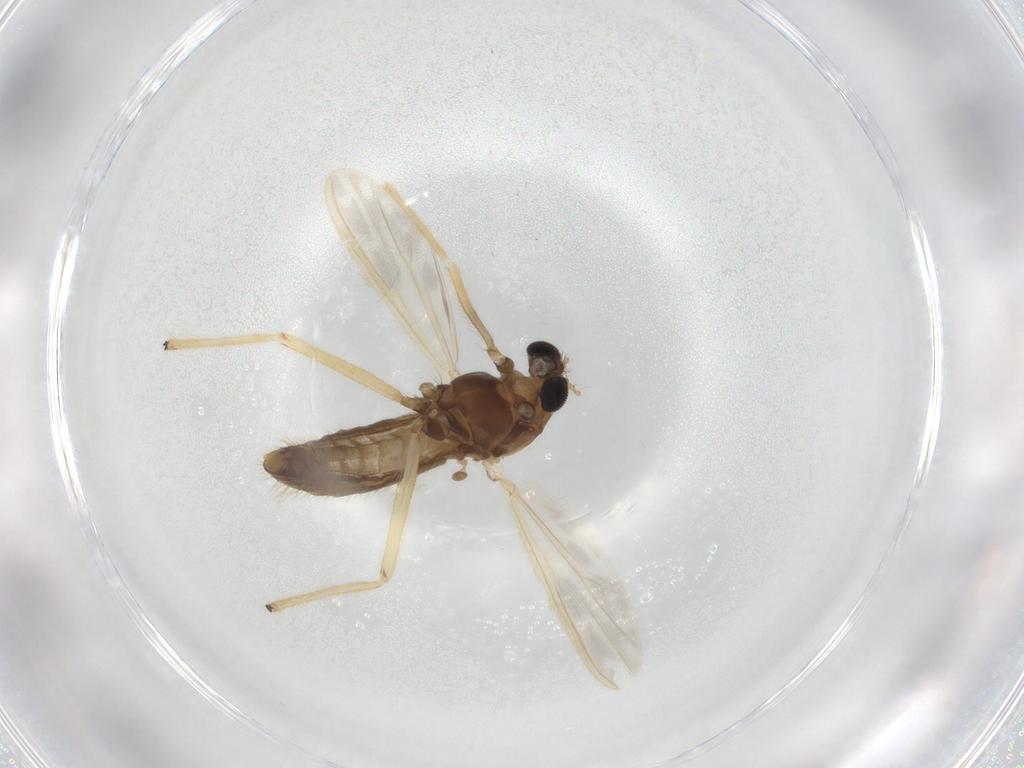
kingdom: Animalia
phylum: Arthropoda
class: Insecta
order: Diptera
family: Chironomidae
